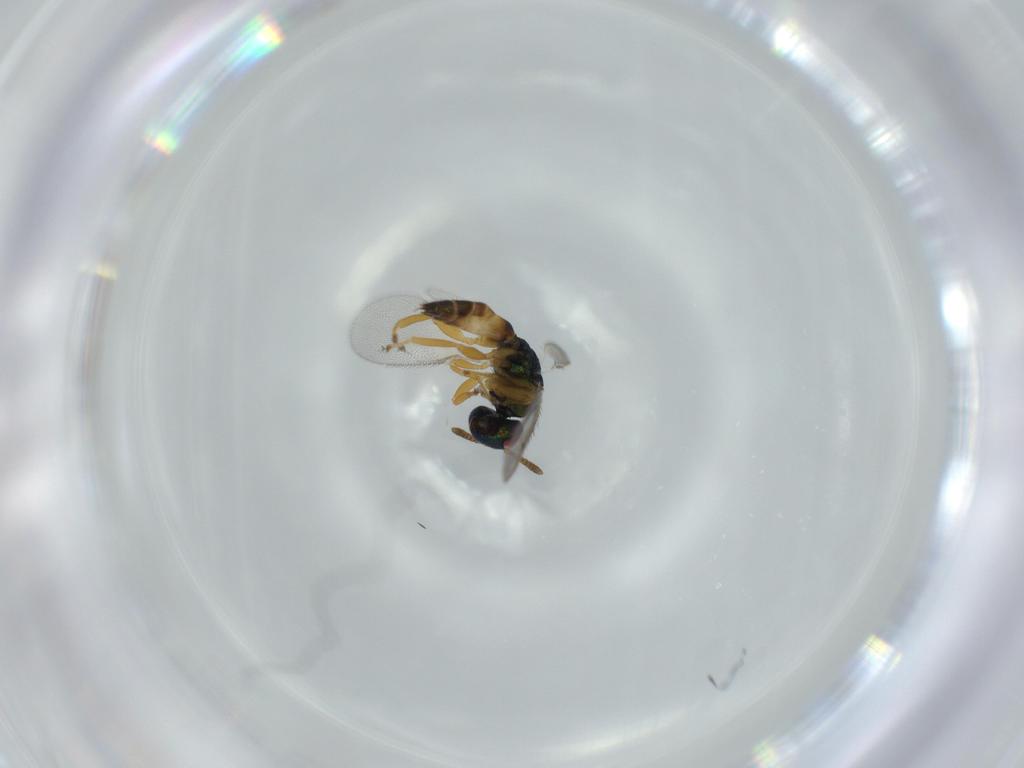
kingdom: Animalia
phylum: Arthropoda
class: Insecta
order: Hymenoptera
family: Pteromalidae
